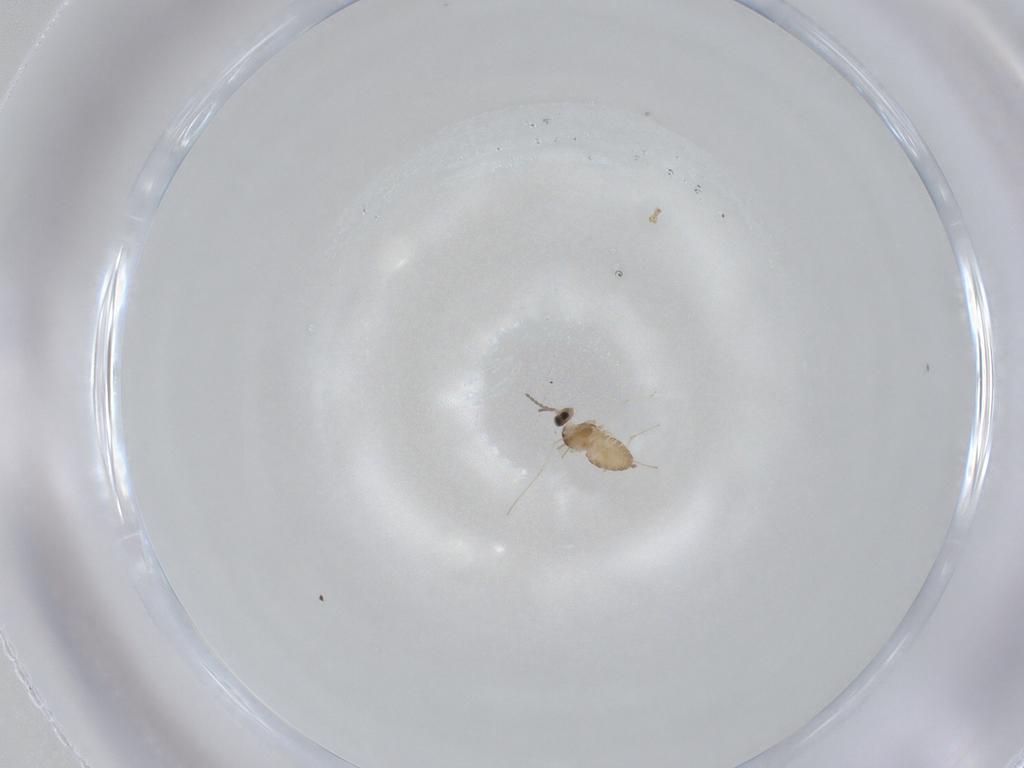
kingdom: Animalia
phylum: Arthropoda
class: Insecta
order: Diptera
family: Cecidomyiidae
